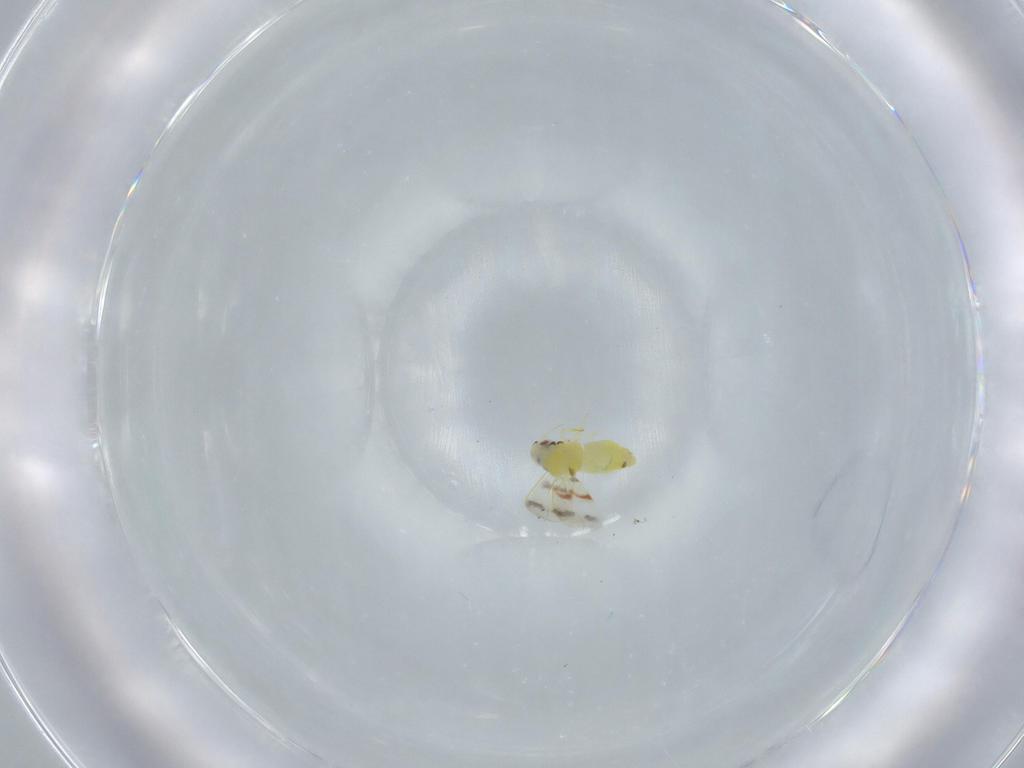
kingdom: Animalia
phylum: Arthropoda
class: Insecta
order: Hemiptera
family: Aleyrodidae
